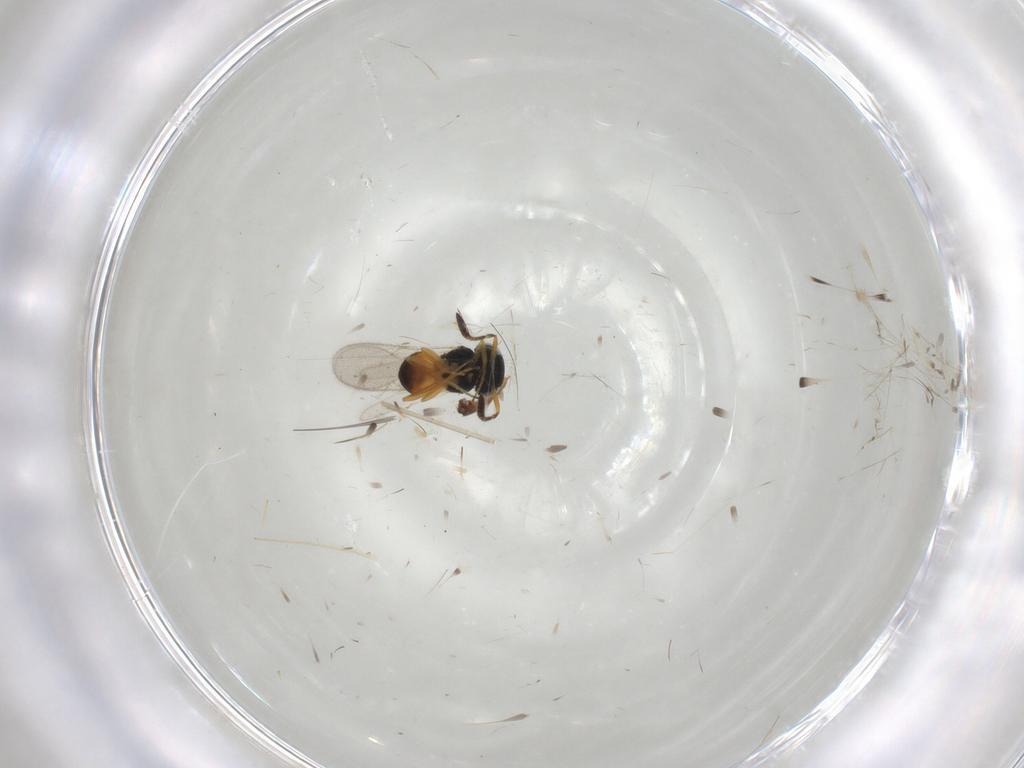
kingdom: Animalia
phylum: Arthropoda
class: Insecta
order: Hymenoptera
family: Scelionidae
